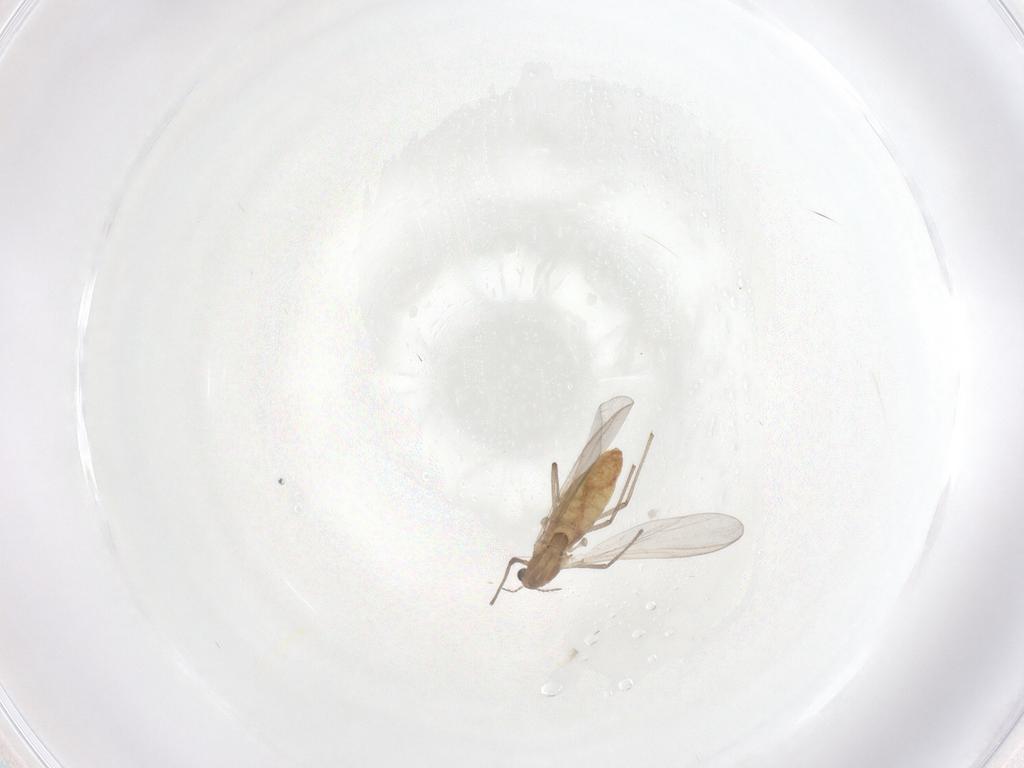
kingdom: Animalia
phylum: Arthropoda
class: Insecta
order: Diptera
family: Chironomidae
